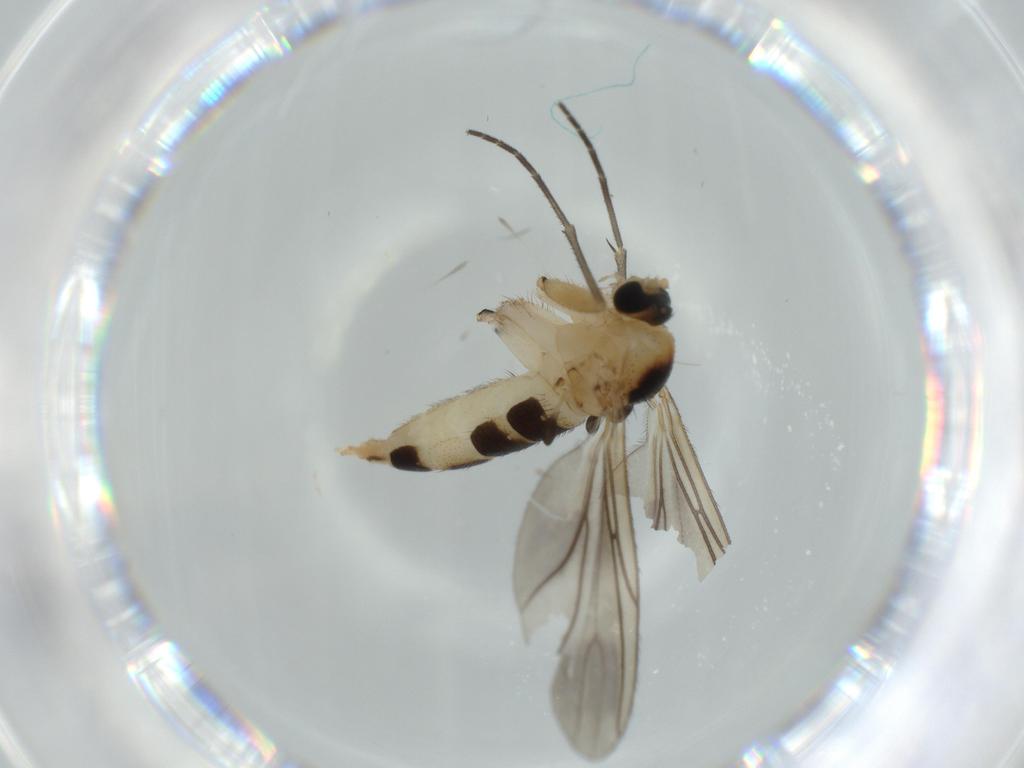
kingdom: Animalia
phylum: Arthropoda
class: Insecta
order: Diptera
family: Sciaridae
